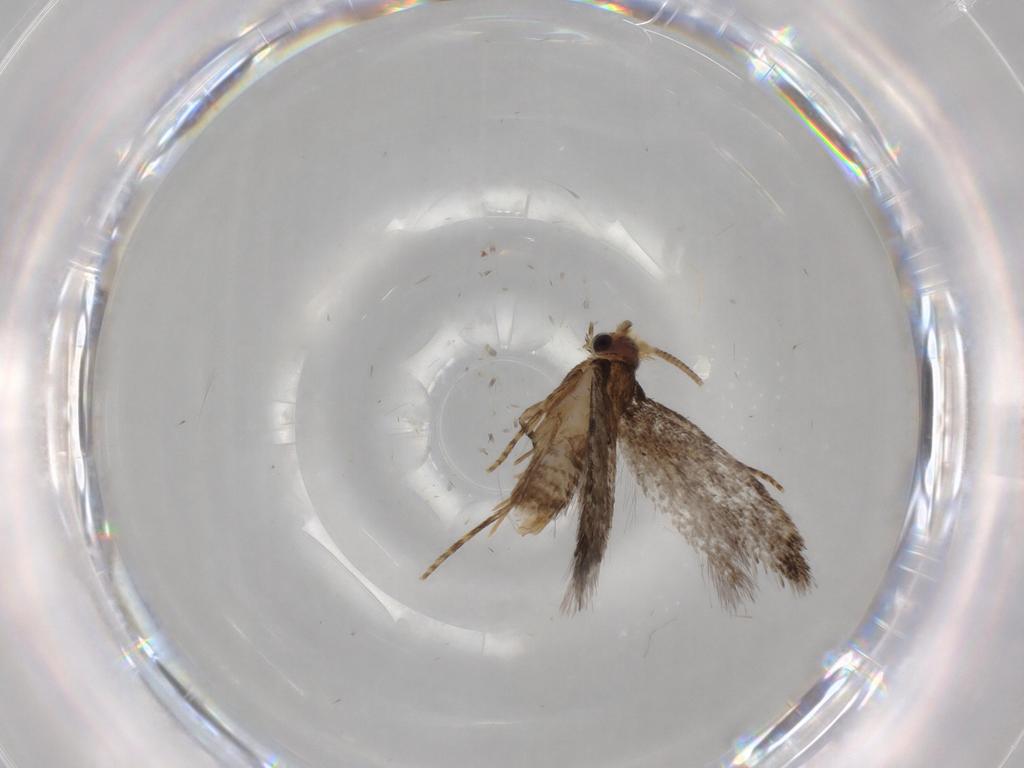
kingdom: Animalia
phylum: Arthropoda
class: Insecta
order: Lepidoptera
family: Tineidae
